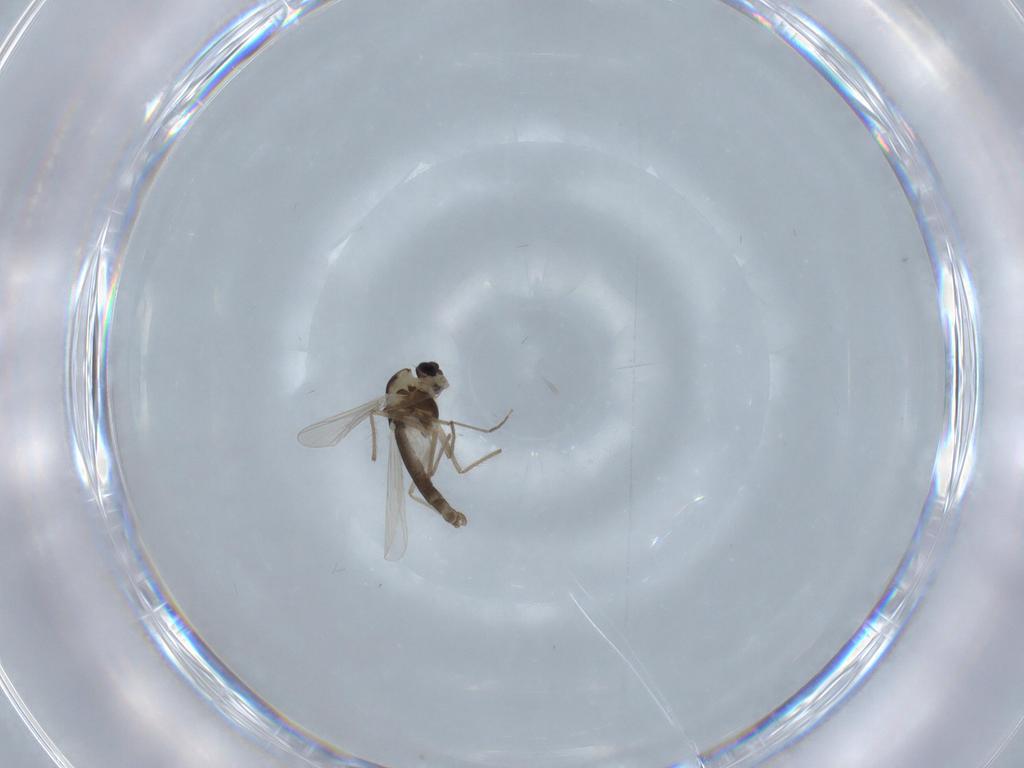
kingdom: Animalia
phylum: Arthropoda
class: Insecta
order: Diptera
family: Chironomidae
